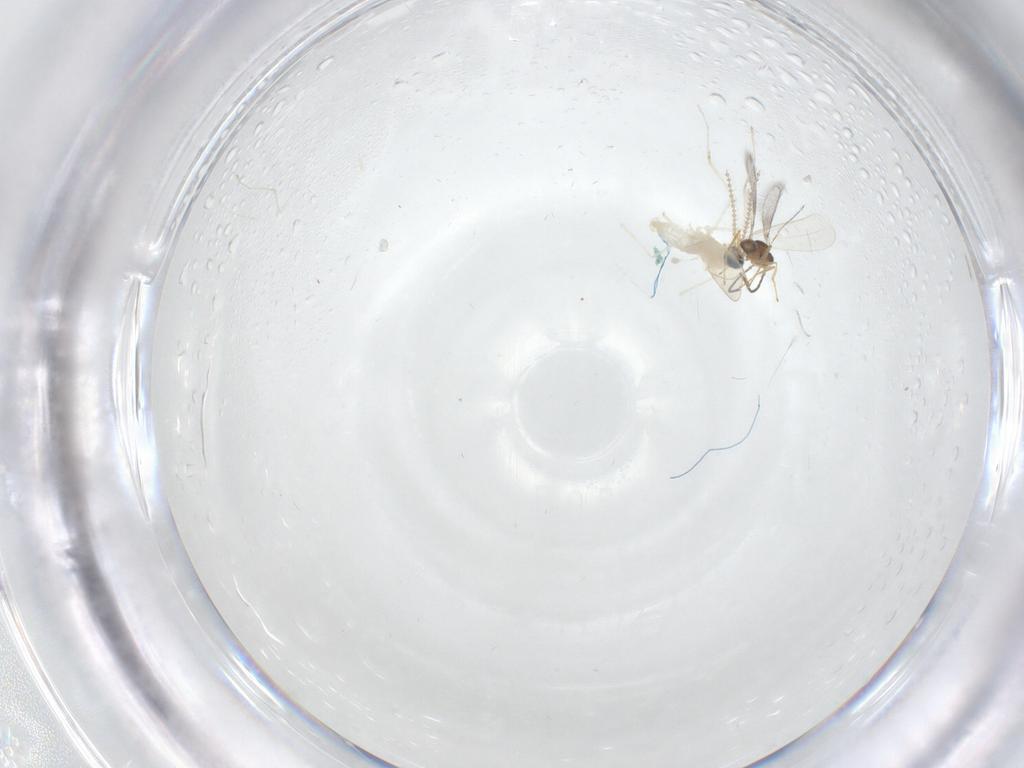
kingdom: Animalia
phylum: Arthropoda
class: Insecta
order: Diptera
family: Cecidomyiidae
